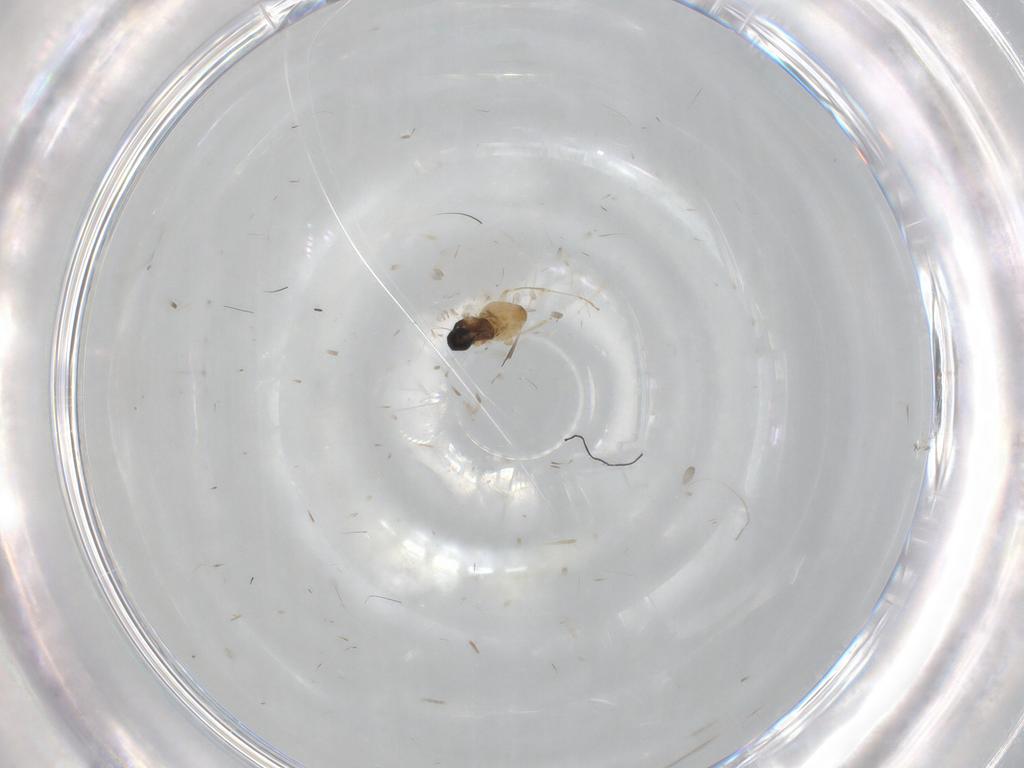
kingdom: Animalia
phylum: Arthropoda
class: Insecta
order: Diptera
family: Cecidomyiidae
